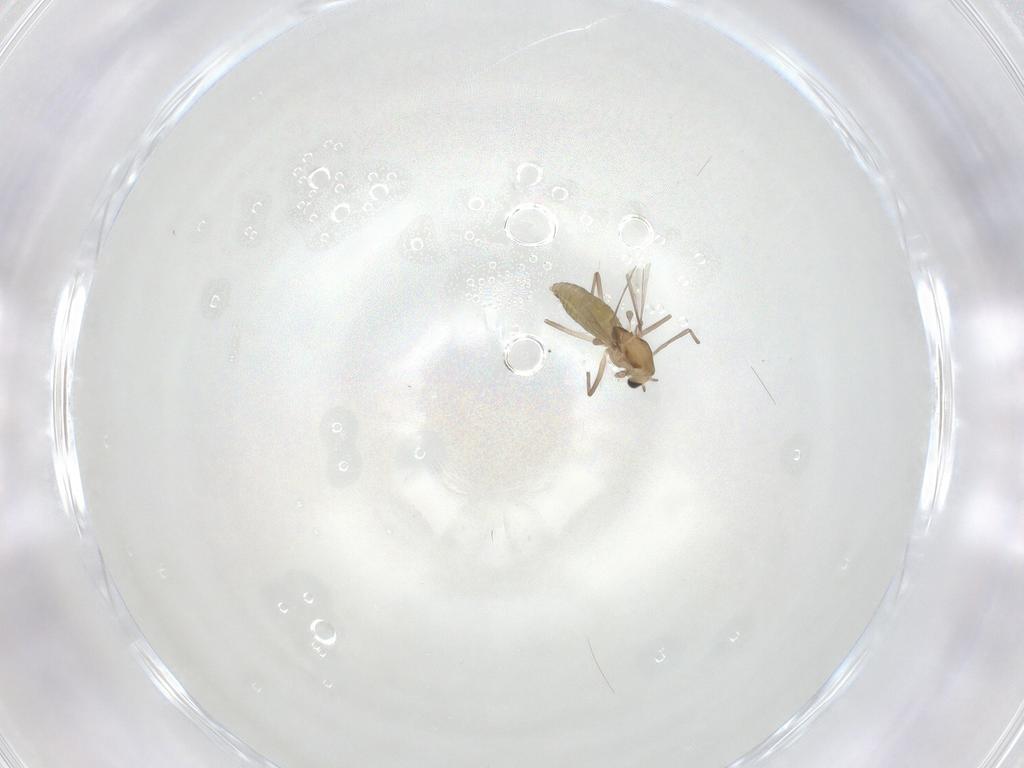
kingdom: Animalia
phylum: Arthropoda
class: Insecta
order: Diptera
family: Chironomidae
